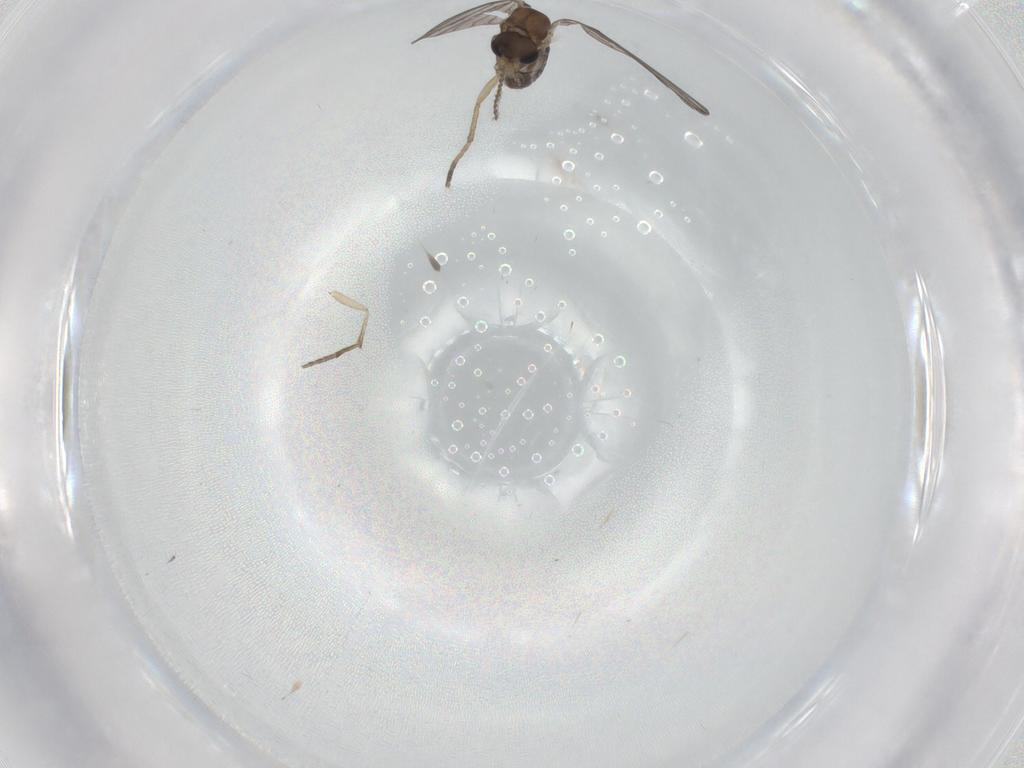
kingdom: Animalia
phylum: Arthropoda
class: Insecta
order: Diptera
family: Psychodidae
